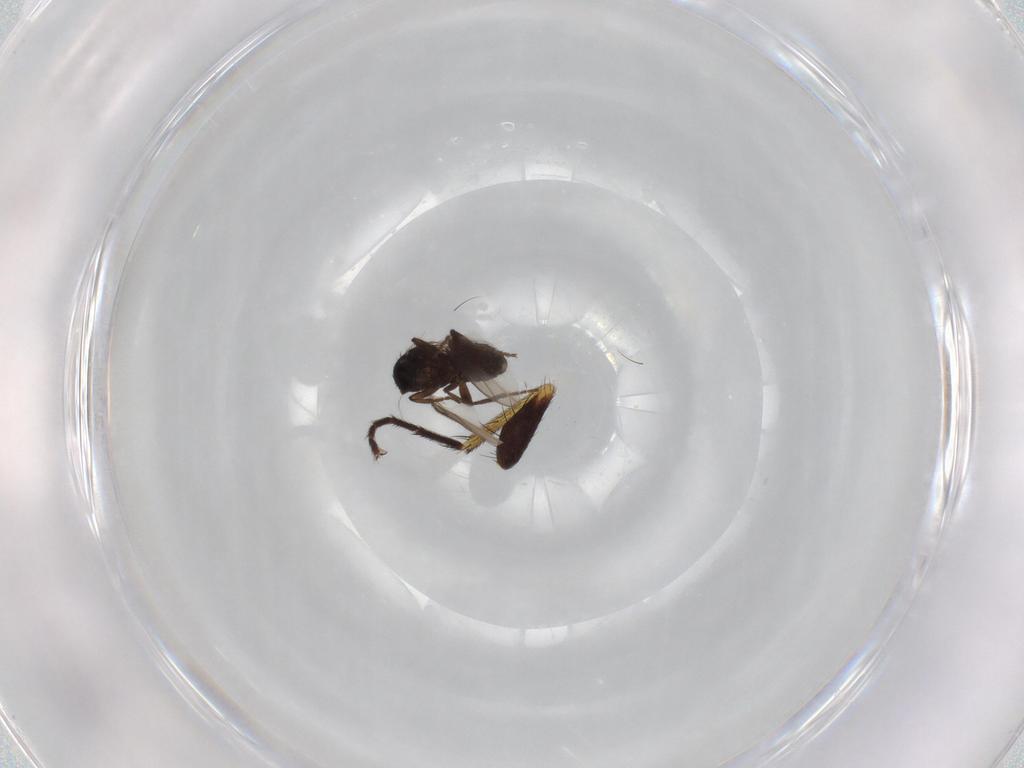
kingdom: Animalia
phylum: Arthropoda
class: Insecta
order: Diptera
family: Sphaeroceridae
